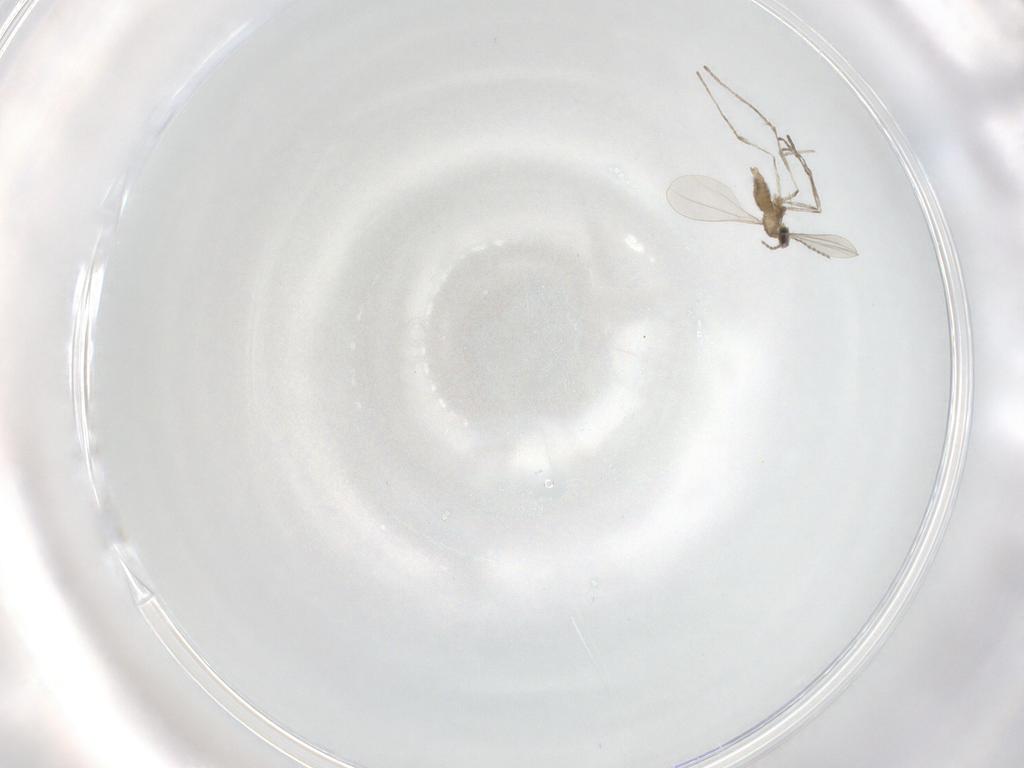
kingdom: Animalia
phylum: Arthropoda
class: Insecta
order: Diptera
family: Cecidomyiidae
